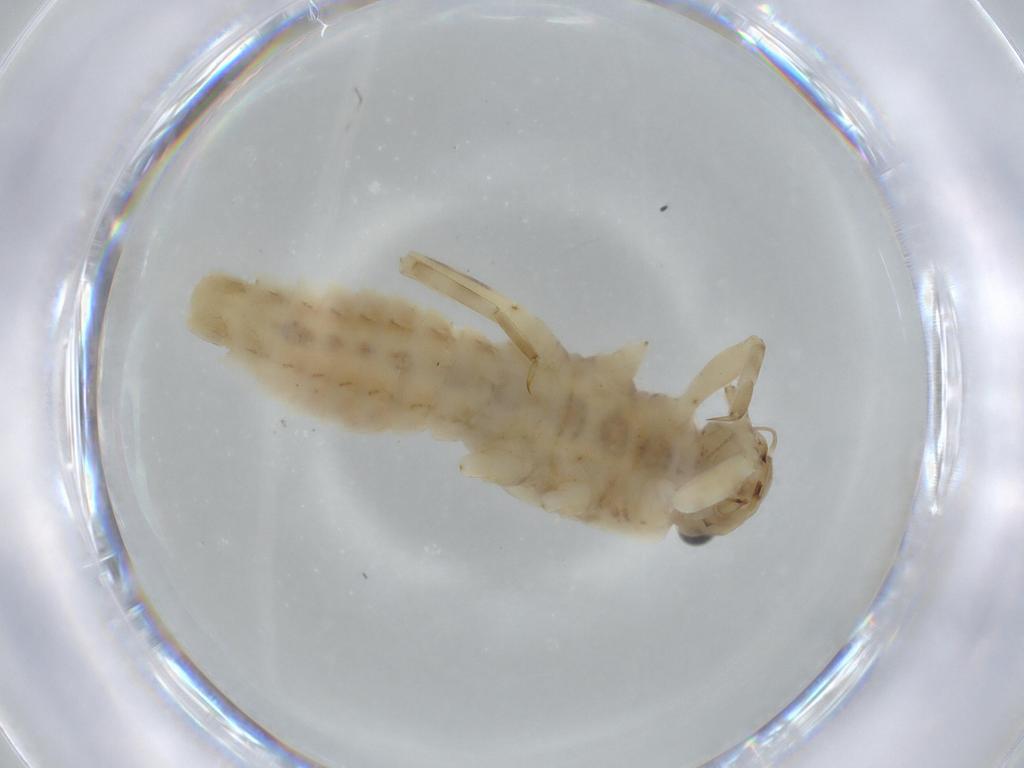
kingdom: Animalia
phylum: Arthropoda
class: Insecta
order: Ephemeroptera
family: Ephemerellidae
